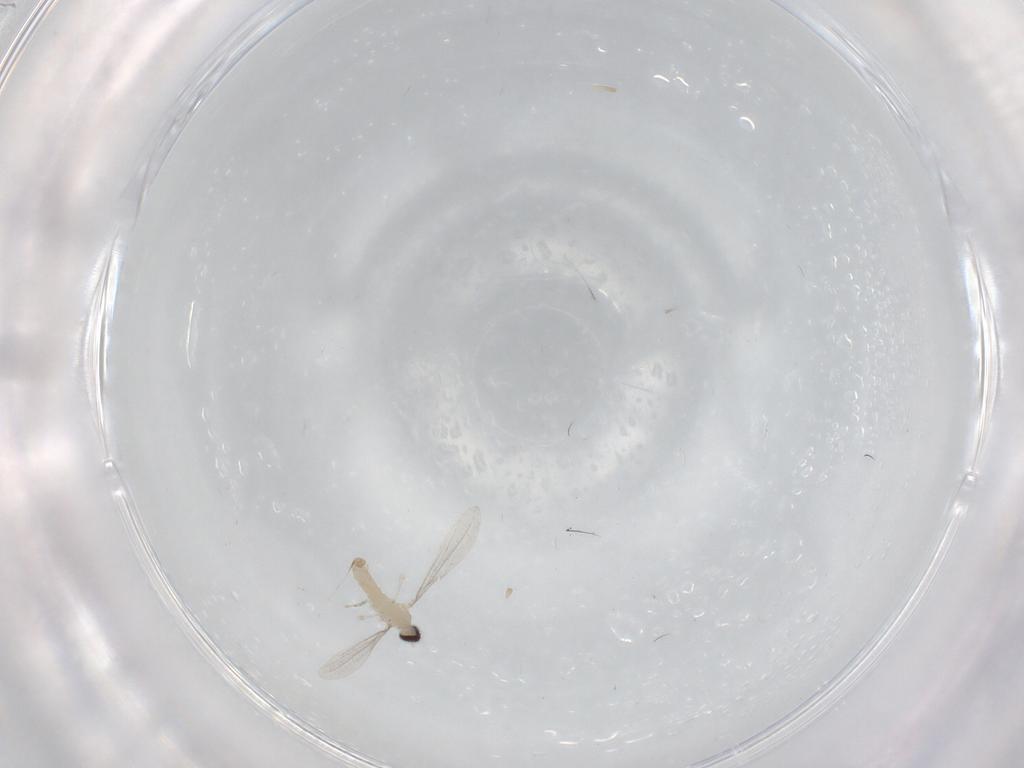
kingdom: Animalia
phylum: Arthropoda
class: Insecta
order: Diptera
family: Cecidomyiidae
